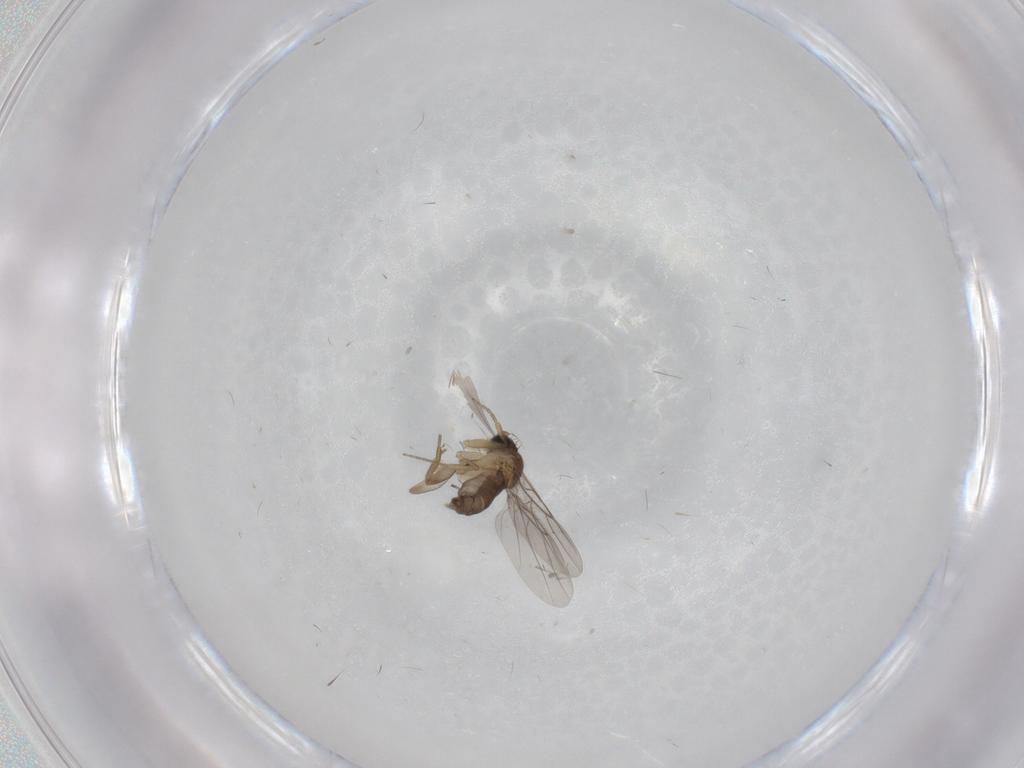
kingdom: Animalia
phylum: Arthropoda
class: Insecta
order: Diptera
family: Phoridae
